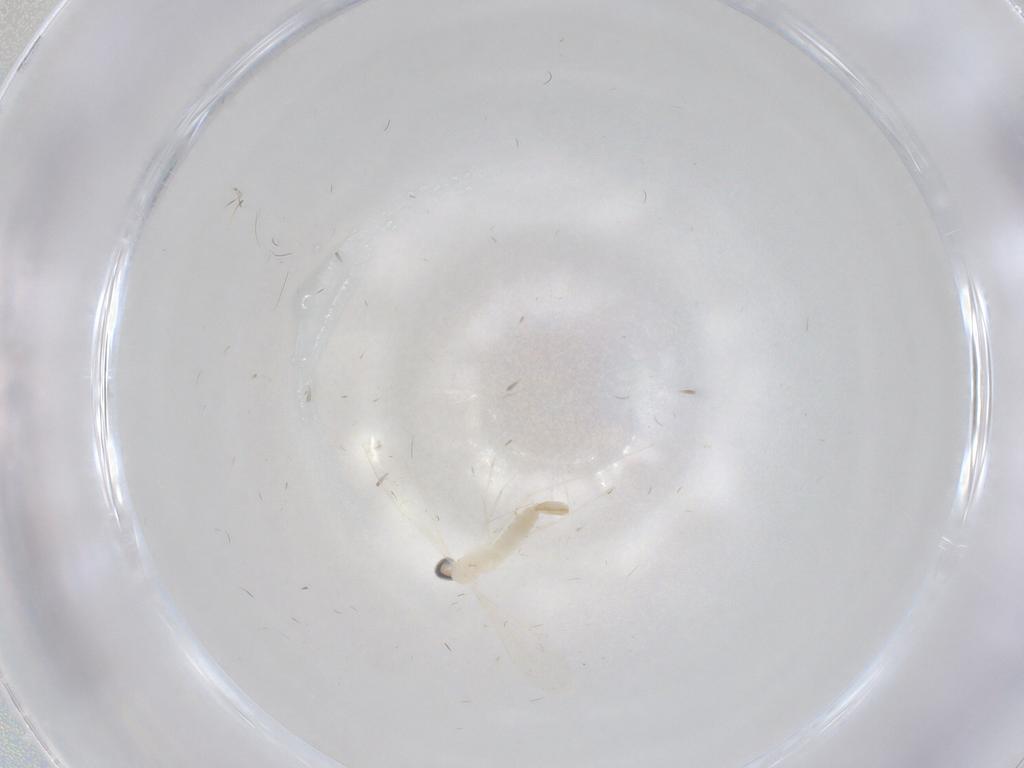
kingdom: Animalia
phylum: Arthropoda
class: Insecta
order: Diptera
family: Cecidomyiidae
